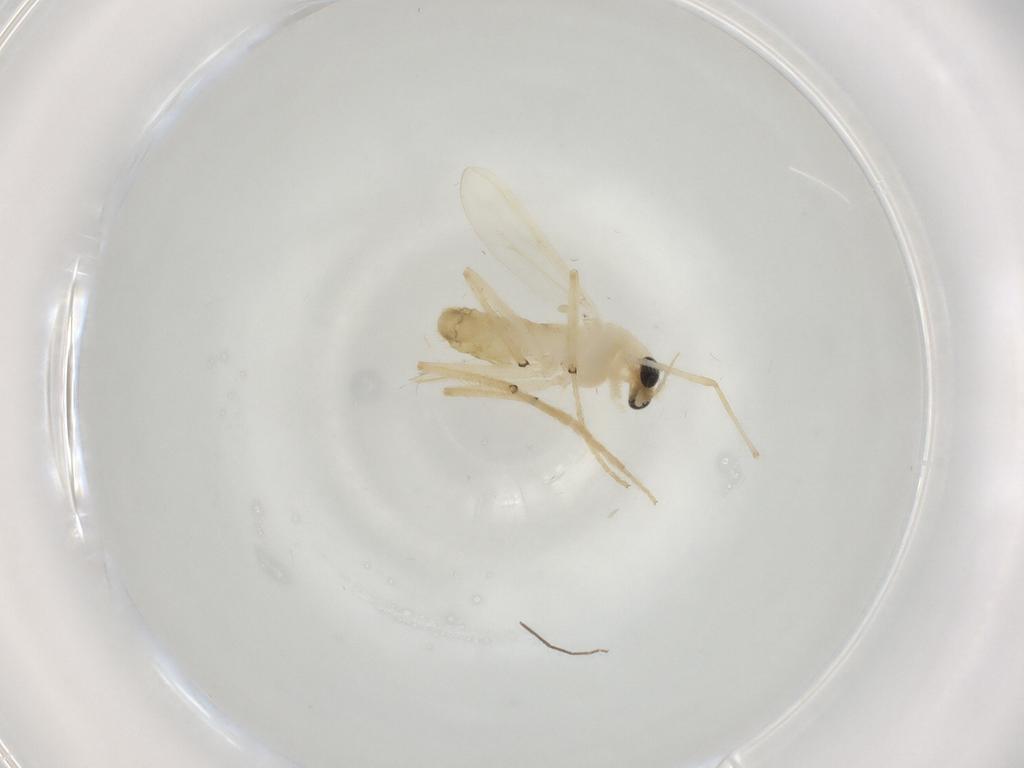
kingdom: Animalia
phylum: Arthropoda
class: Insecta
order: Diptera
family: Chironomidae
